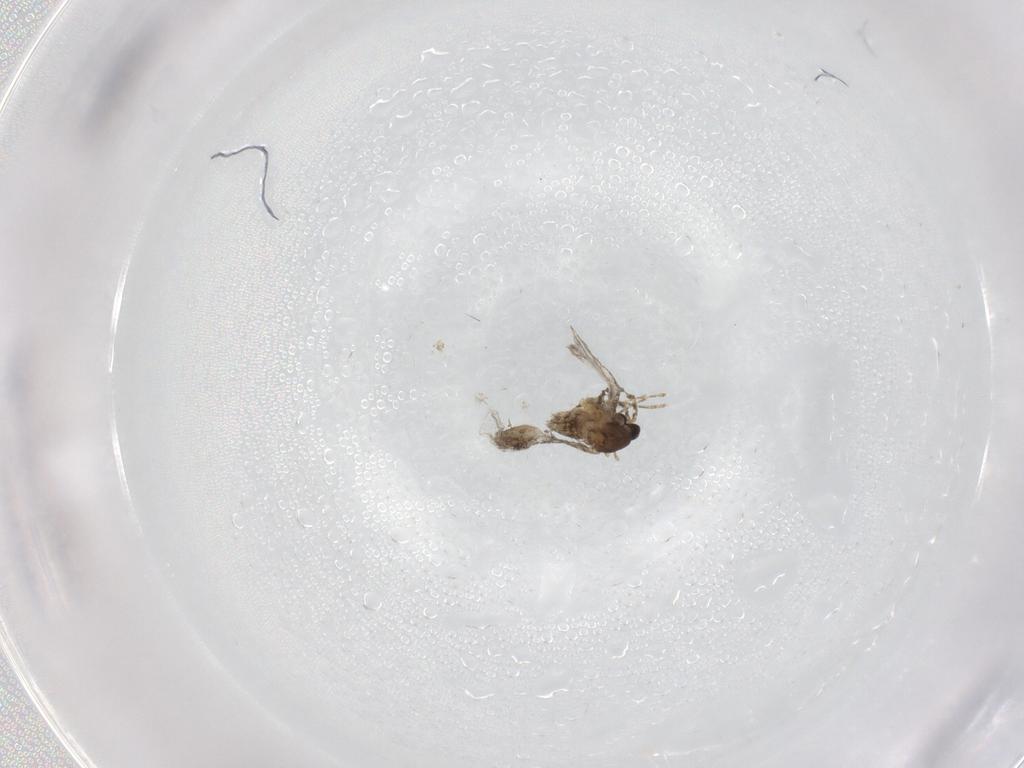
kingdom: Animalia
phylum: Arthropoda
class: Insecta
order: Diptera
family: Cecidomyiidae
